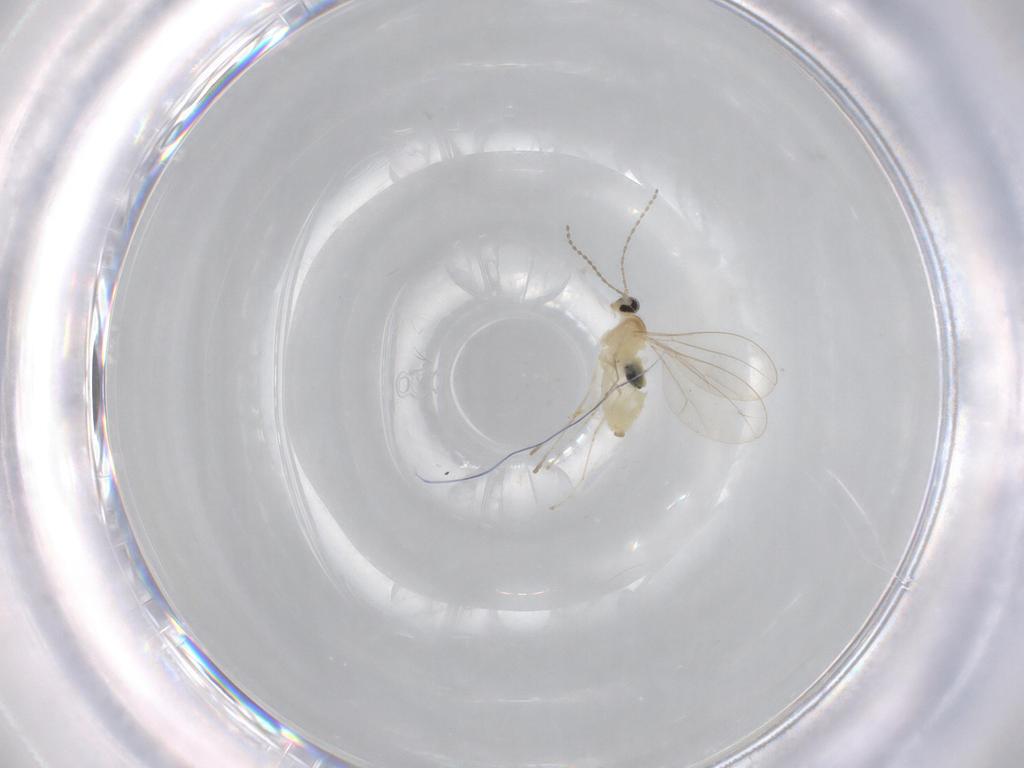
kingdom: Animalia
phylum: Arthropoda
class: Insecta
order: Diptera
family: Cecidomyiidae
